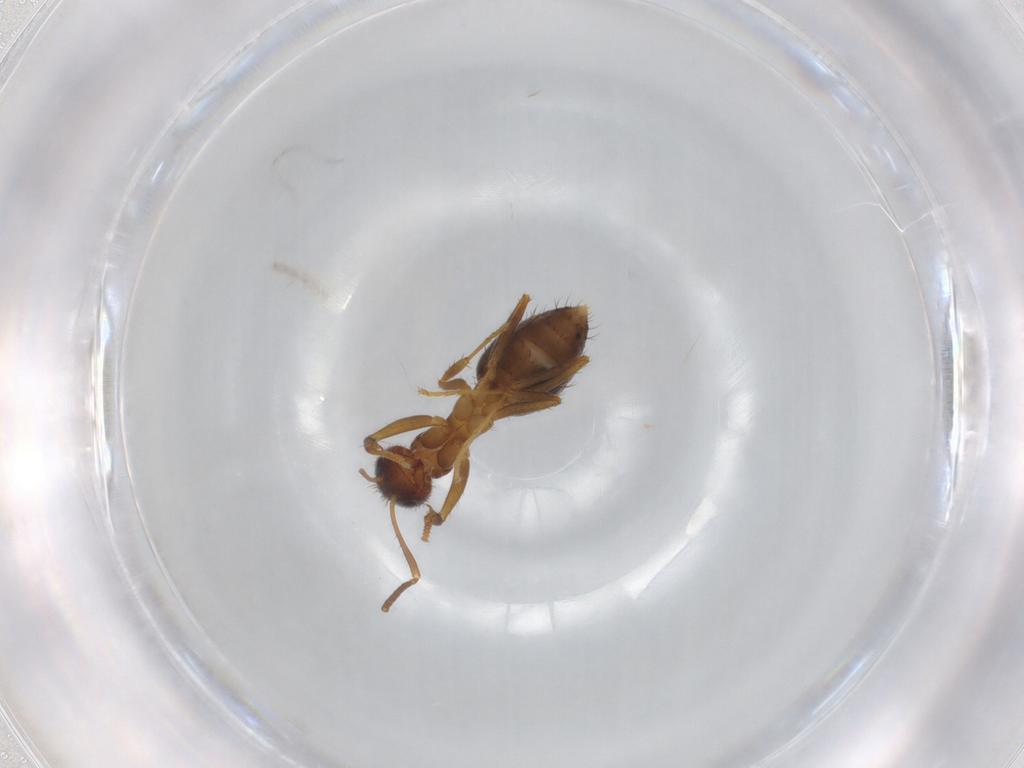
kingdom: Animalia
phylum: Arthropoda
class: Insecta
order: Hymenoptera
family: Formicidae
